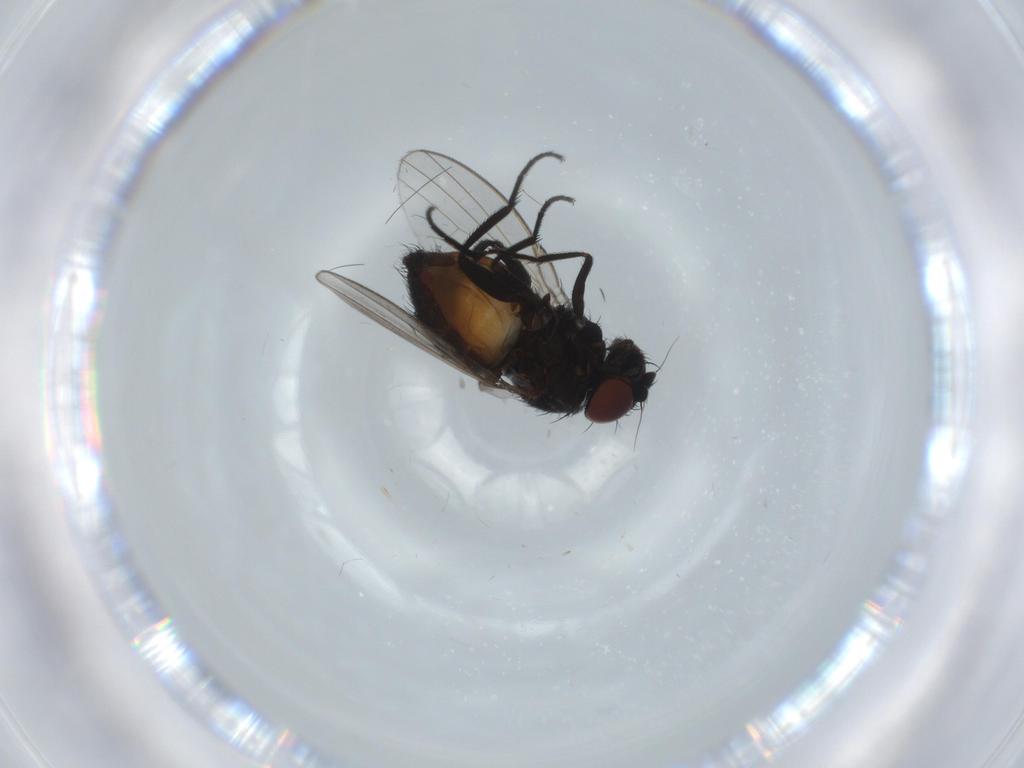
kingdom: Animalia
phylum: Arthropoda
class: Insecta
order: Diptera
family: Milichiidae
